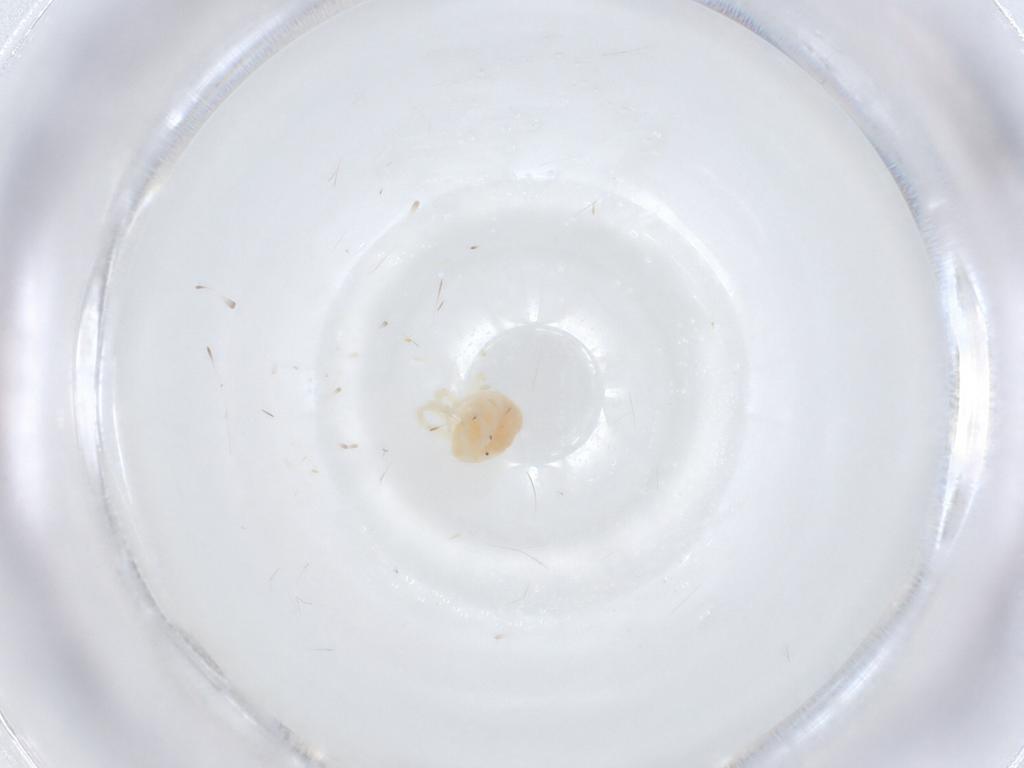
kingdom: Animalia
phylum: Arthropoda
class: Arachnida
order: Trombidiformes
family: Anystidae
